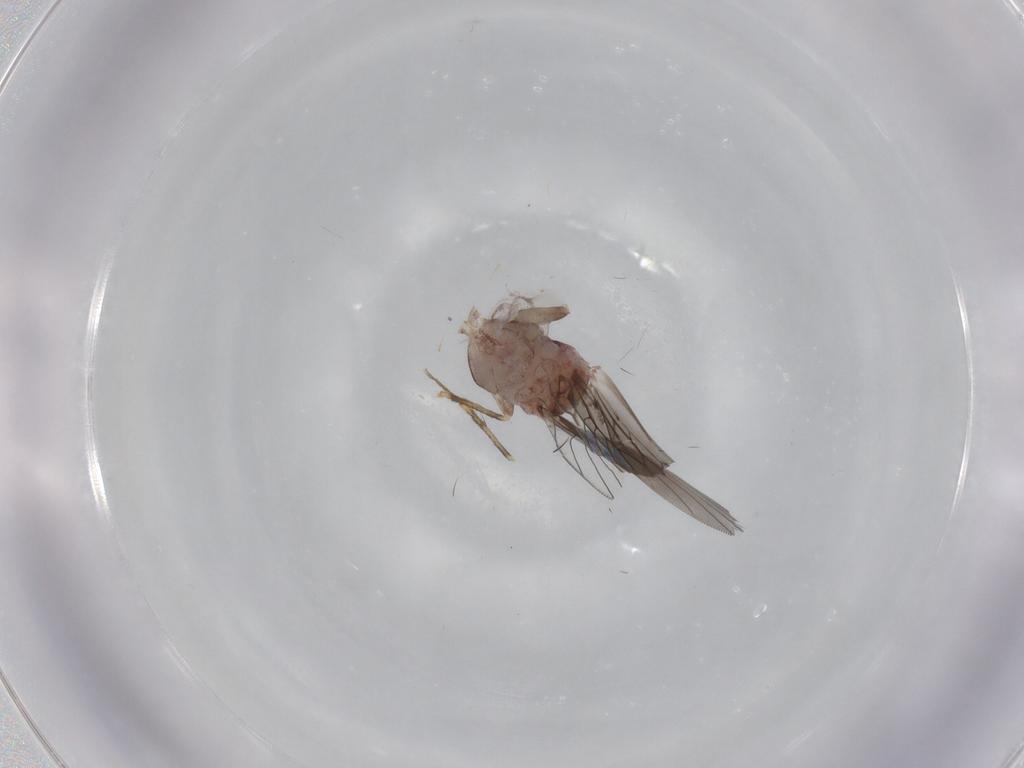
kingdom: Animalia
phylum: Arthropoda
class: Insecta
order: Psocodea
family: Lepidopsocidae
